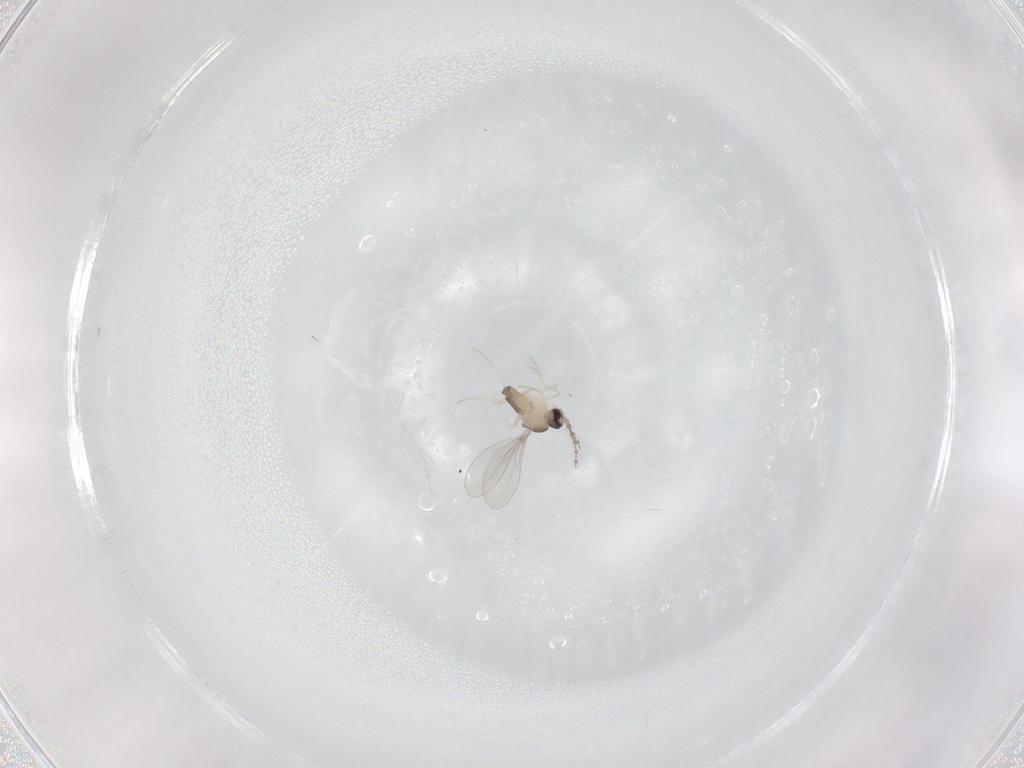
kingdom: Animalia
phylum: Arthropoda
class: Insecta
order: Diptera
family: Cecidomyiidae
